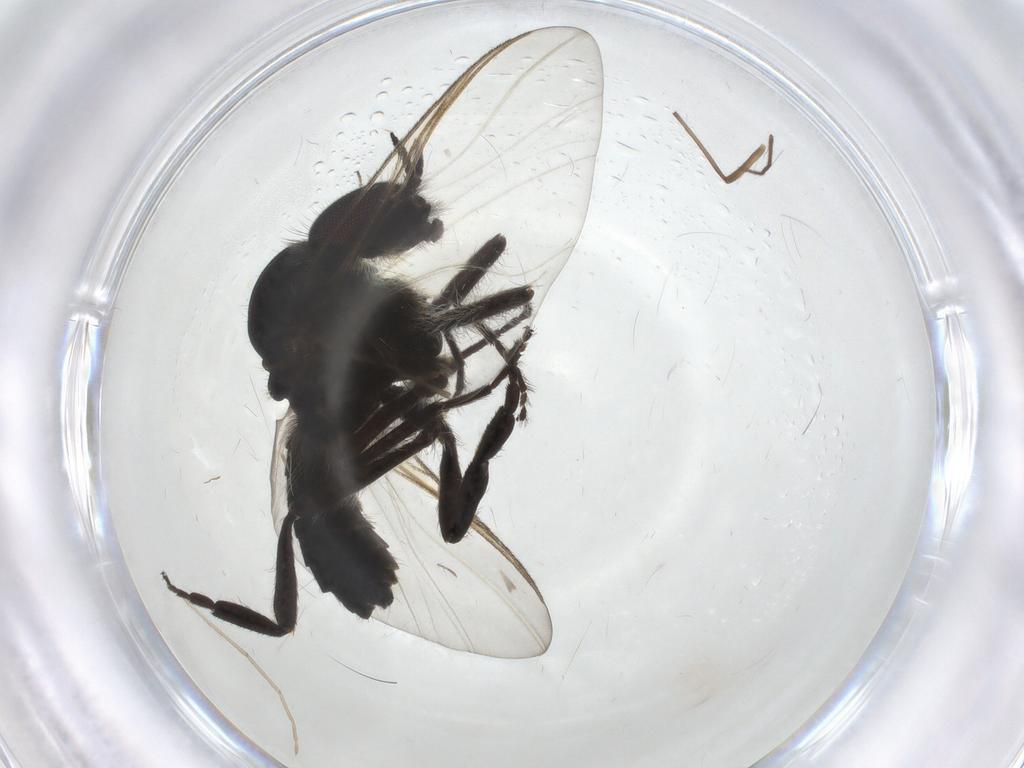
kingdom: Animalia
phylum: Arthropoda
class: Insecta
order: Diptera
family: Simuliidae
